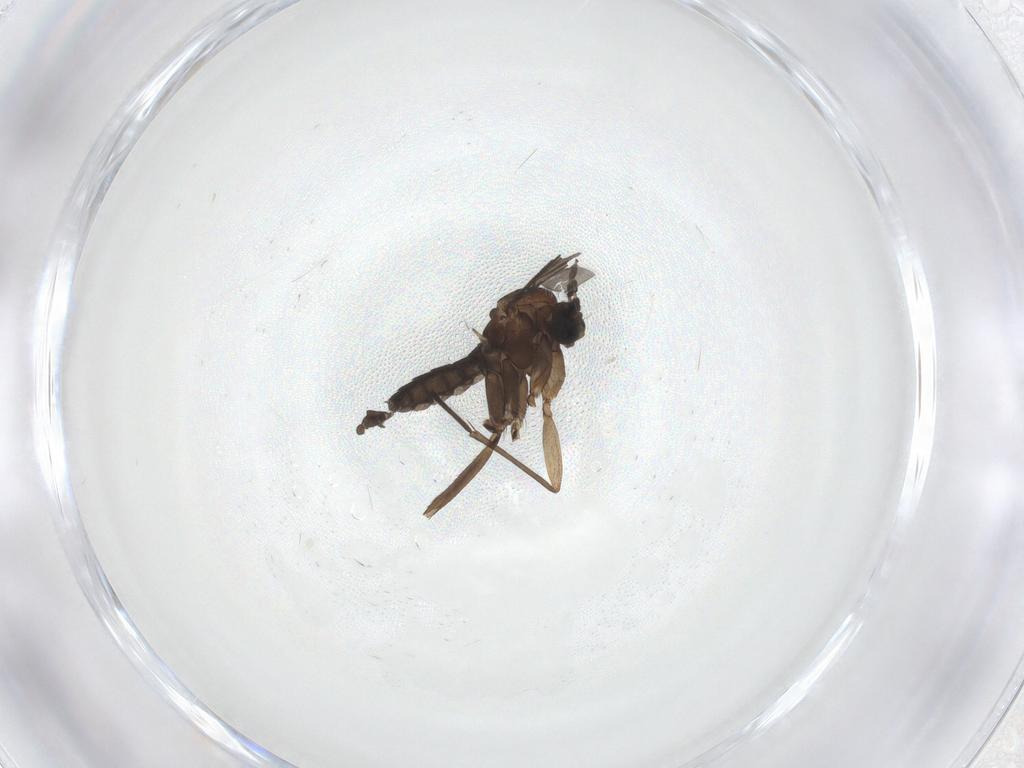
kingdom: Animalia
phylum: Arthropoda
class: Insecta
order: Diptera
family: Sciaridae
